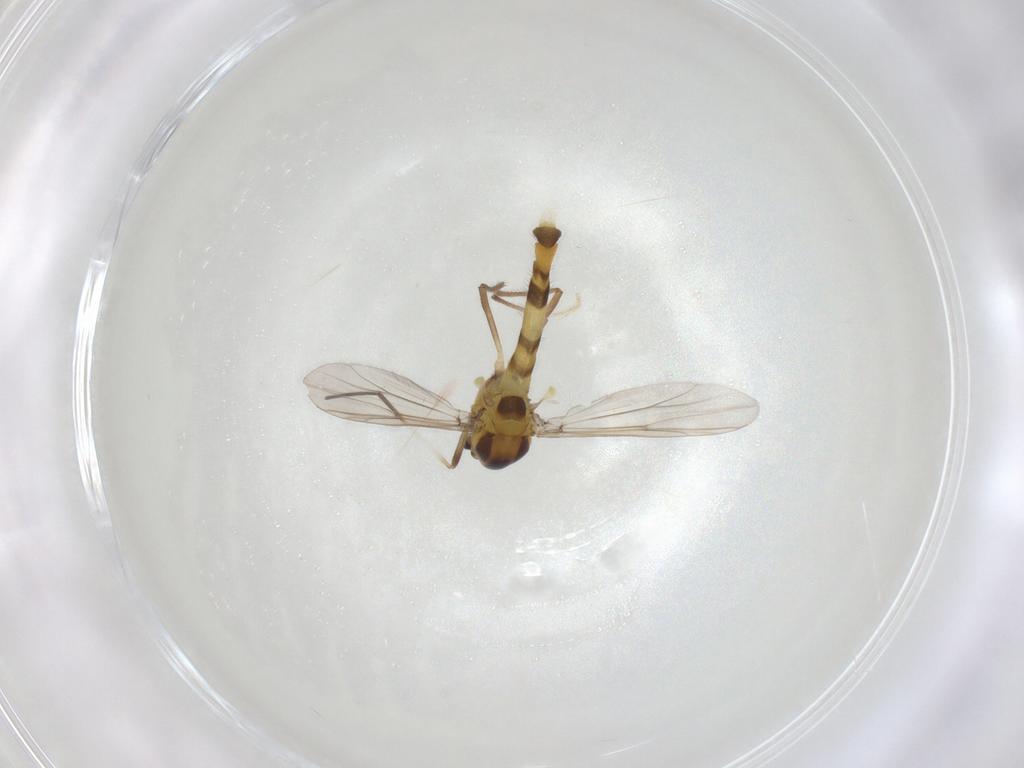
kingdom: Animalia
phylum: Arthropoda
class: Insecta
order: Diptera
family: Chironomidae
